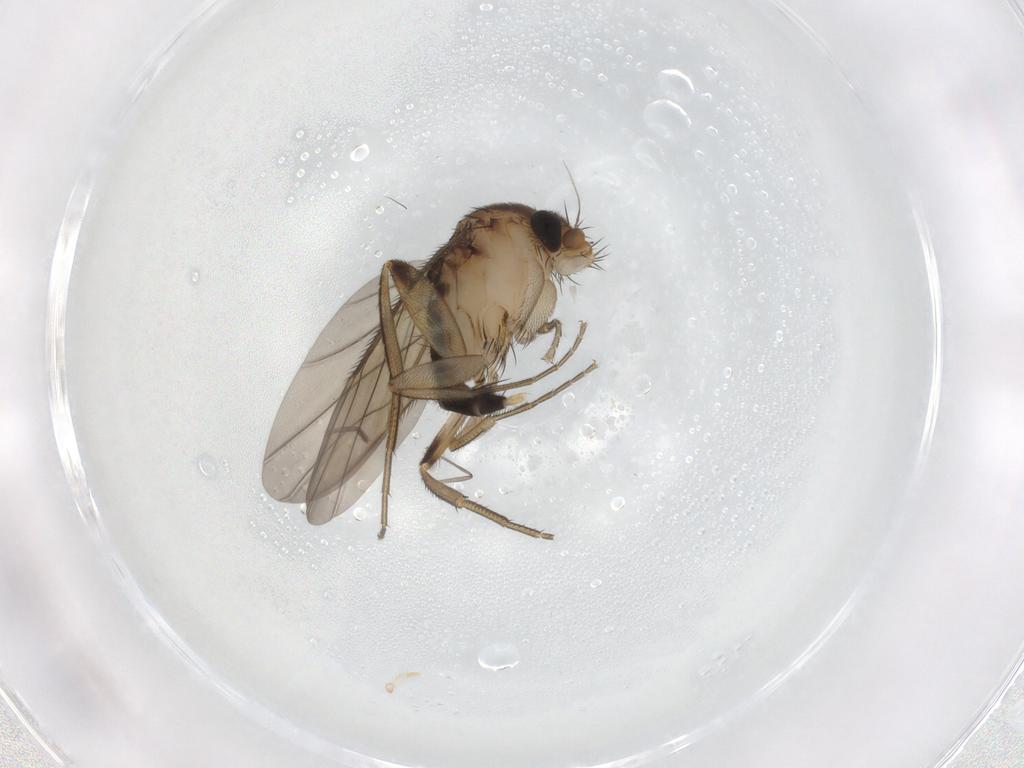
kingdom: Animalia
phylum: Arthropoda
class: Insecta
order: Diptera
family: Phoridae
